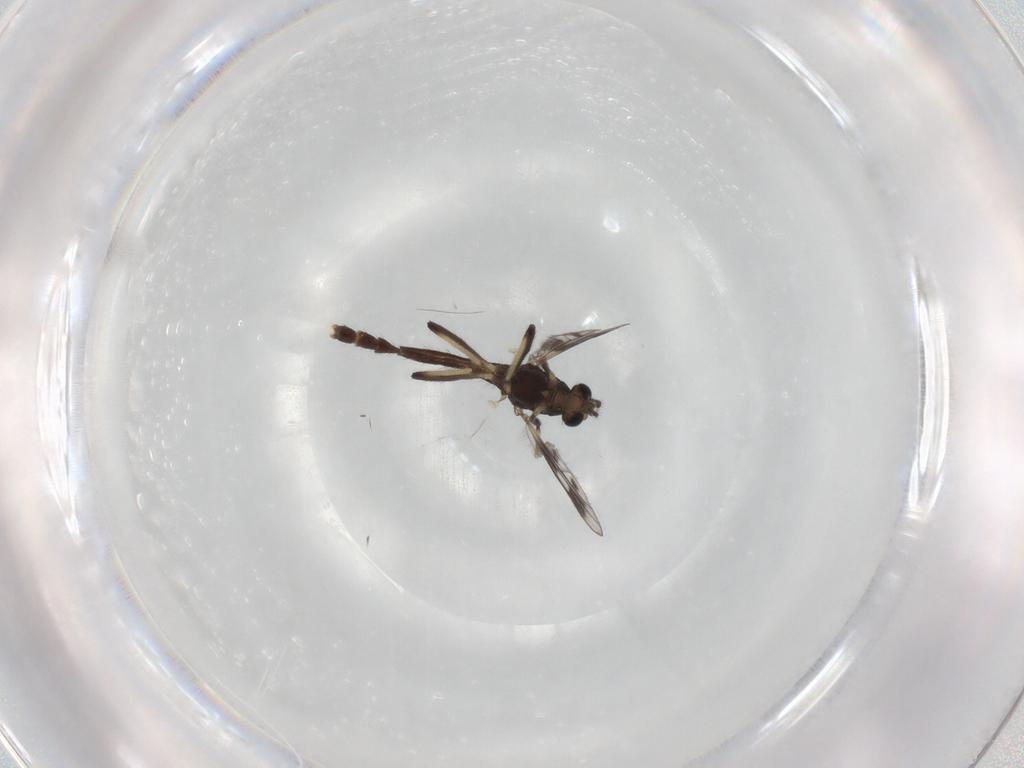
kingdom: Animalia
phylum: Arthropoda
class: Insecta
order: Diptera
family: Chironomidae
